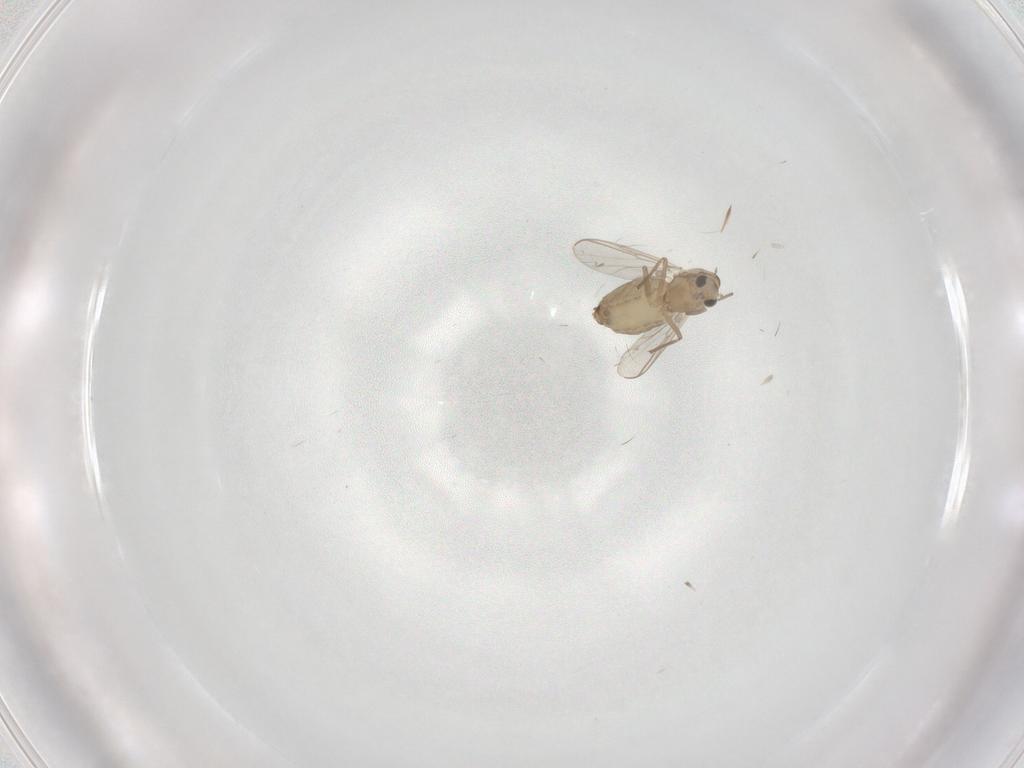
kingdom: Animalia
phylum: Arthropoda
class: Insecta
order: Diptera
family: Chironomidae
